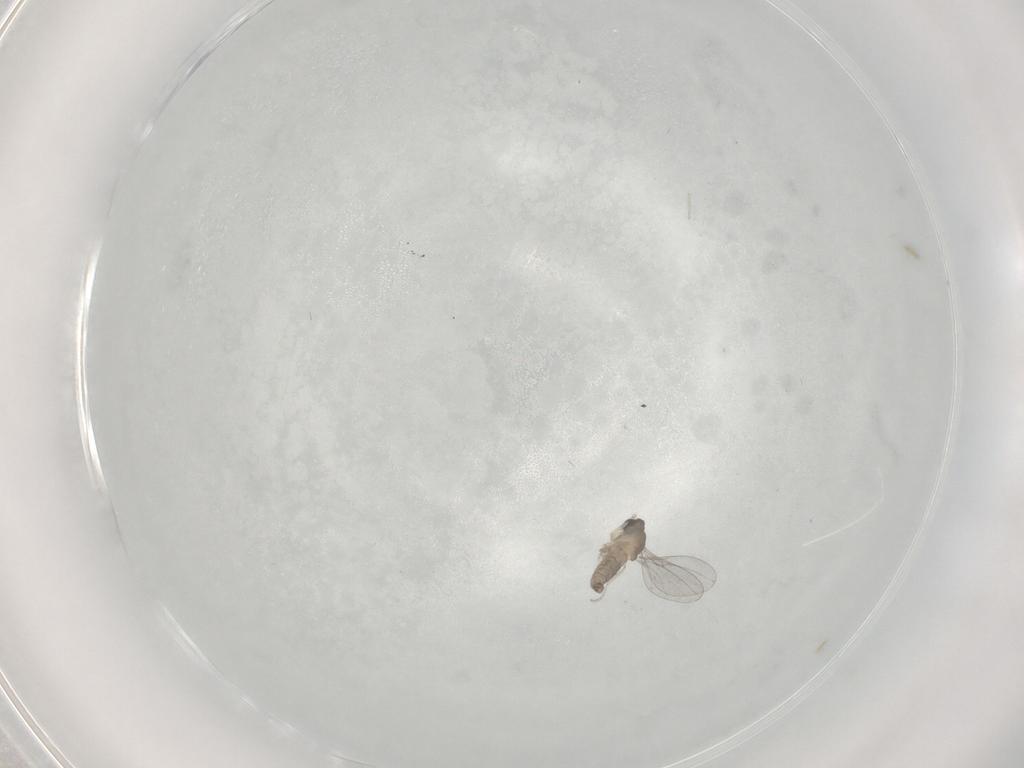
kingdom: Animalia
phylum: Arthropoda
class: Insecta
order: Diptera
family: Cecidomyiidae
